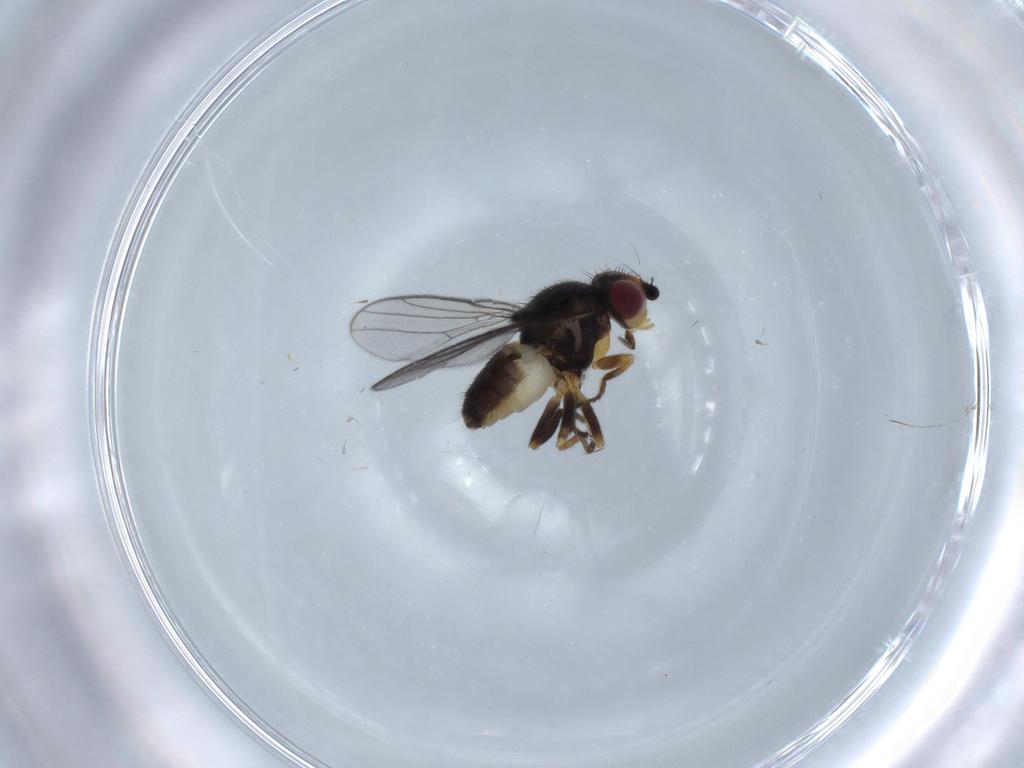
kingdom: Animalia
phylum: Arthropoda
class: Insecta
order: Diptera
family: Chloropidae
